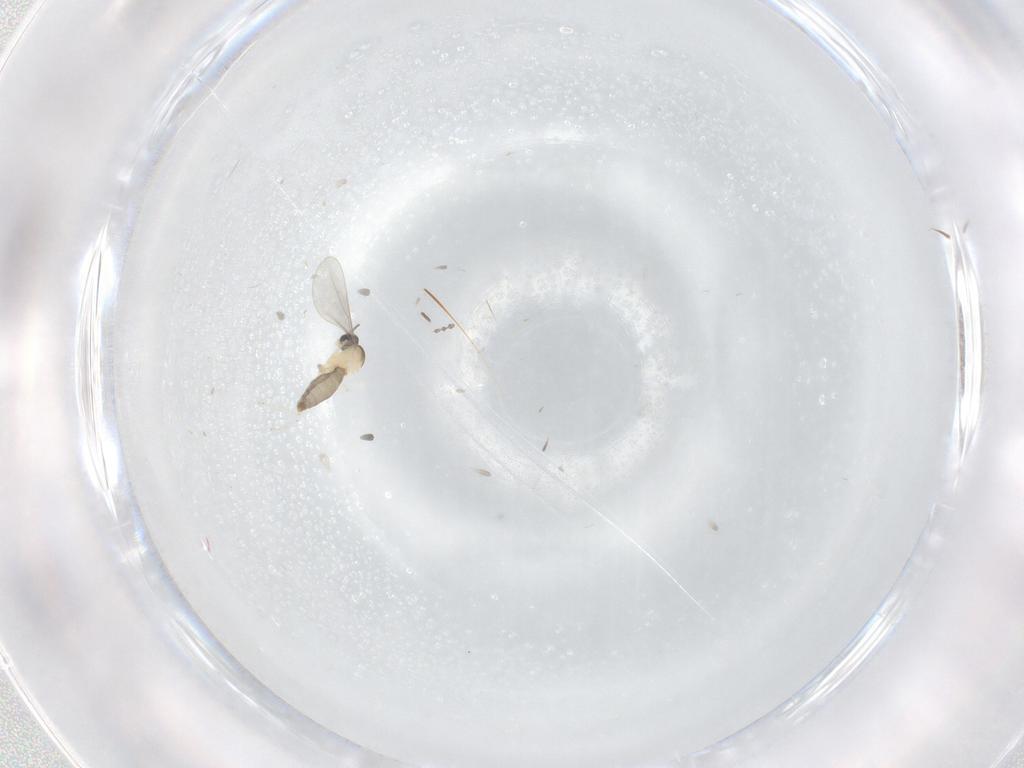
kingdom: Animalia
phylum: Arthropoda
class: Insecta
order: Diptera
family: Cecidomyiidae
